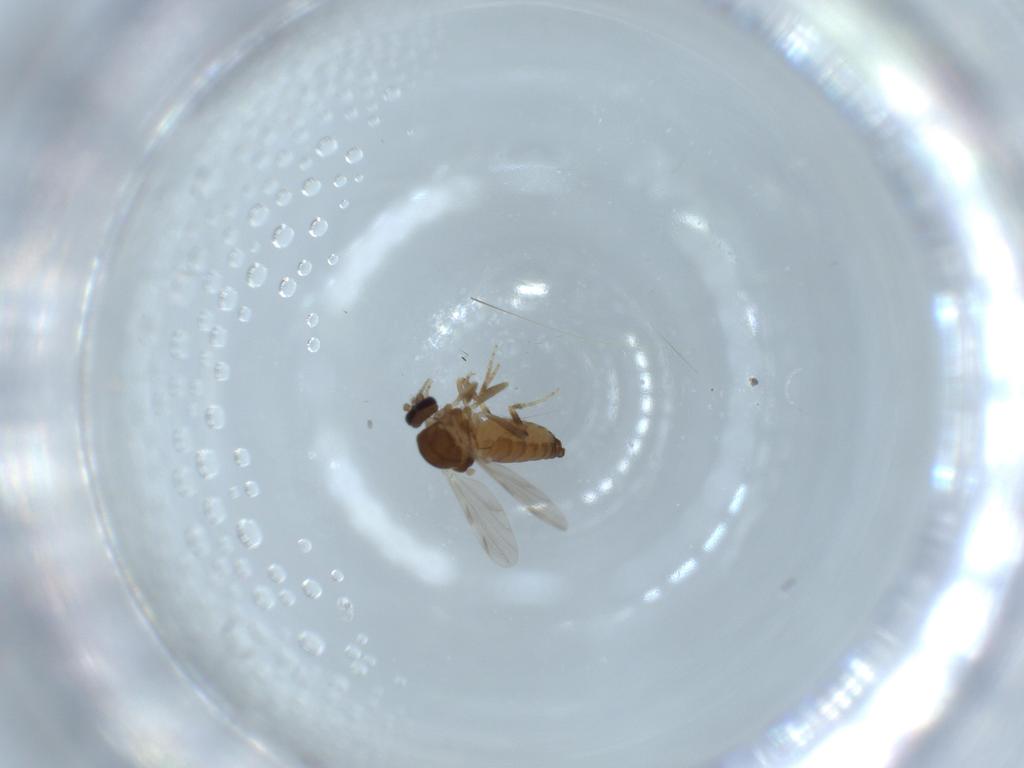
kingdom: Animalia
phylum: Arthropoda
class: Insecta
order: Diptera
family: Ceratopogonidae
